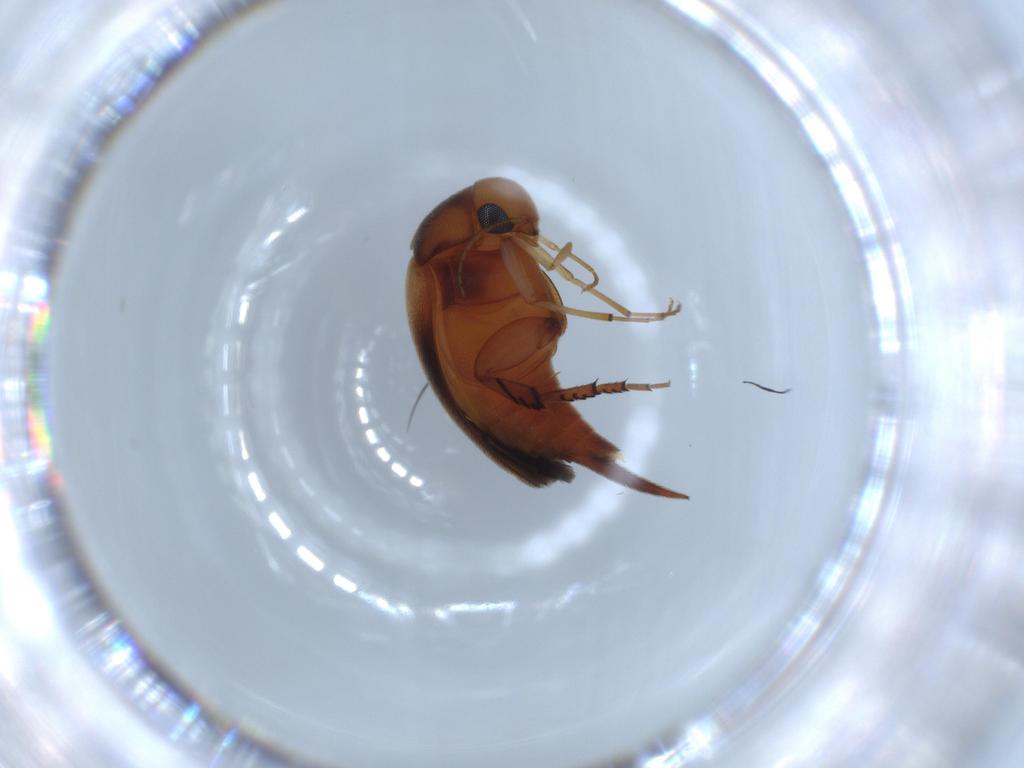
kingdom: Animalia
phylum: Arthropoda
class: Insecta
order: Coleoptera
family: Mordellidae
